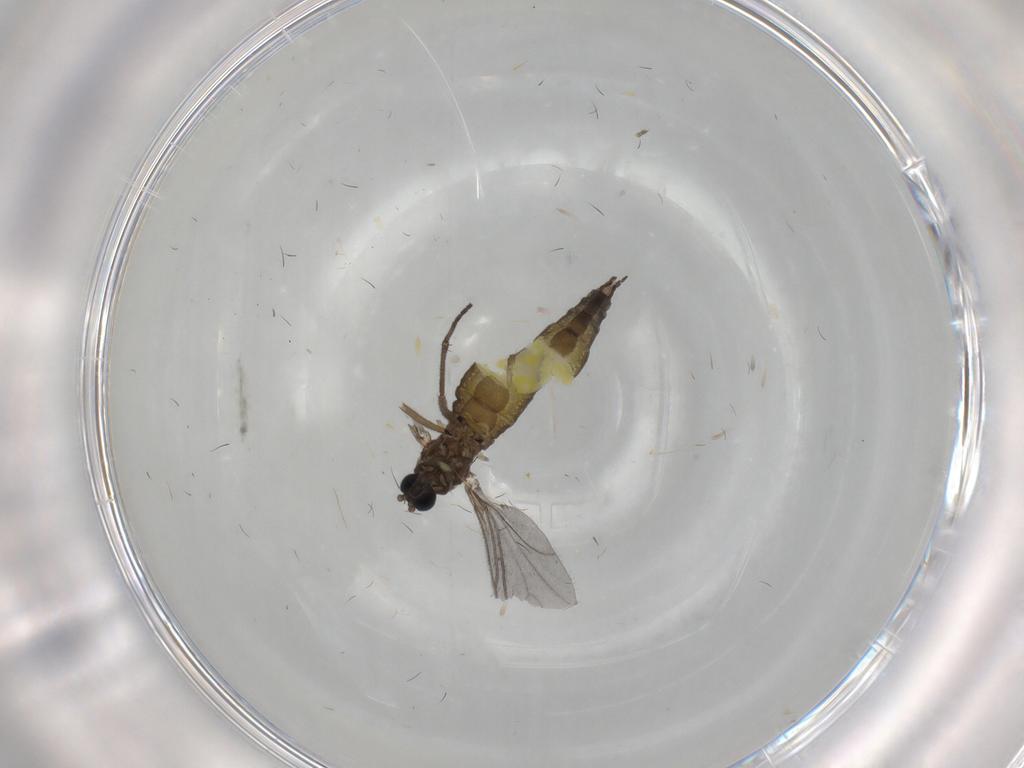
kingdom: Animalia
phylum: Arthropoda
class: Insecta
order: Diptera
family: Sciaridae
